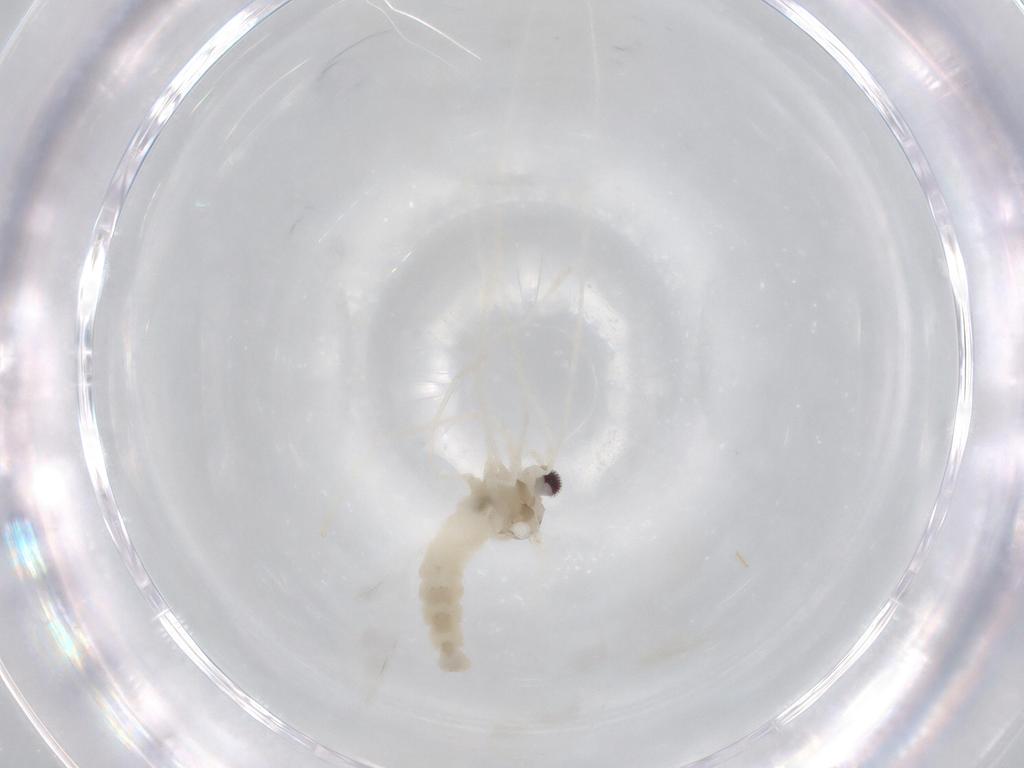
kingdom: Animalia
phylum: Arthropoda
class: Insecta
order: Diptera
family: Cecidomyiidae
